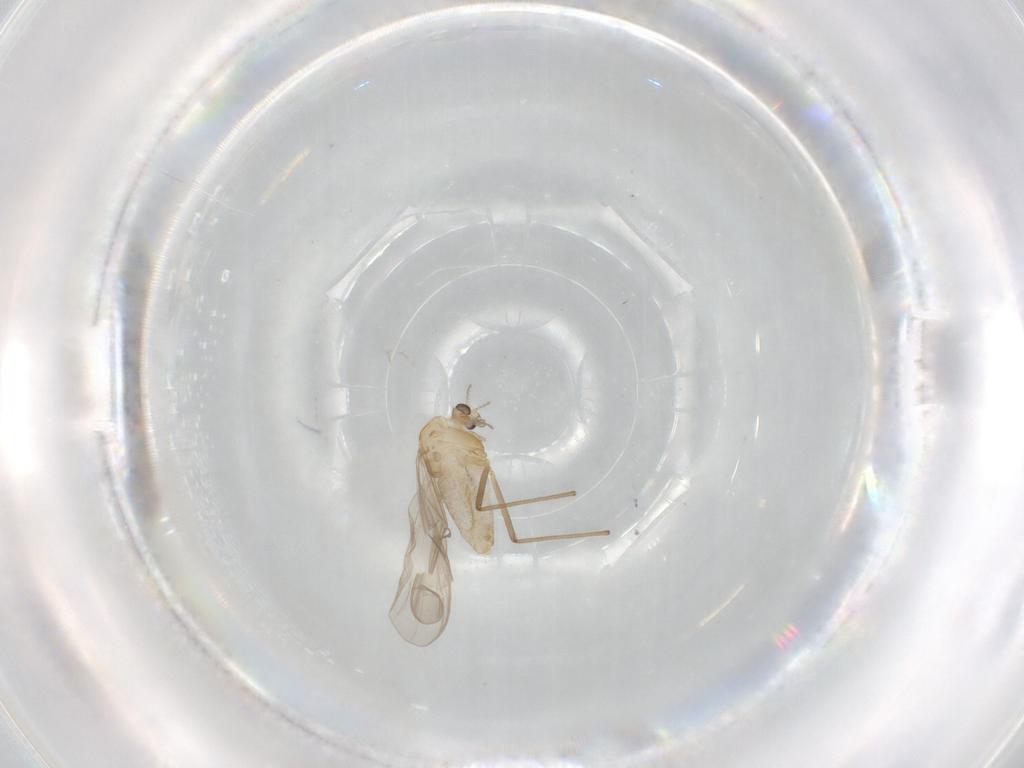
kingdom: Animalia
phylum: Arthropoda
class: Insecta
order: Diptera
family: Chironomidae
